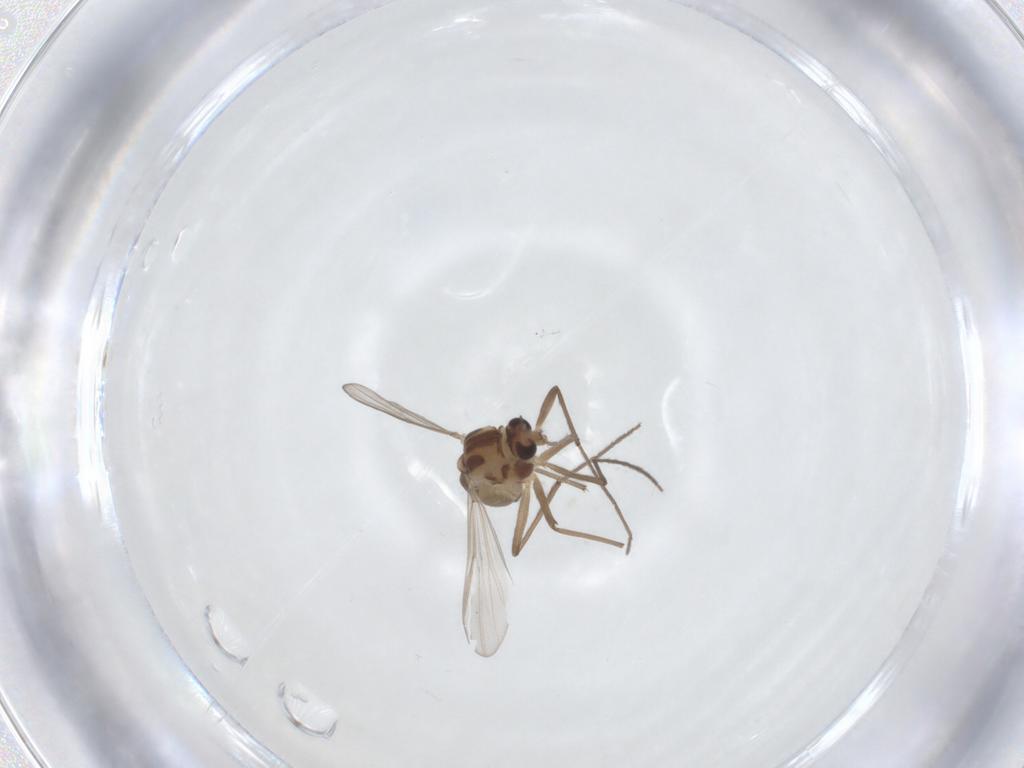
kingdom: Animalia
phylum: Arthropoda
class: Insecta
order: Diptera
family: Chironomidae
